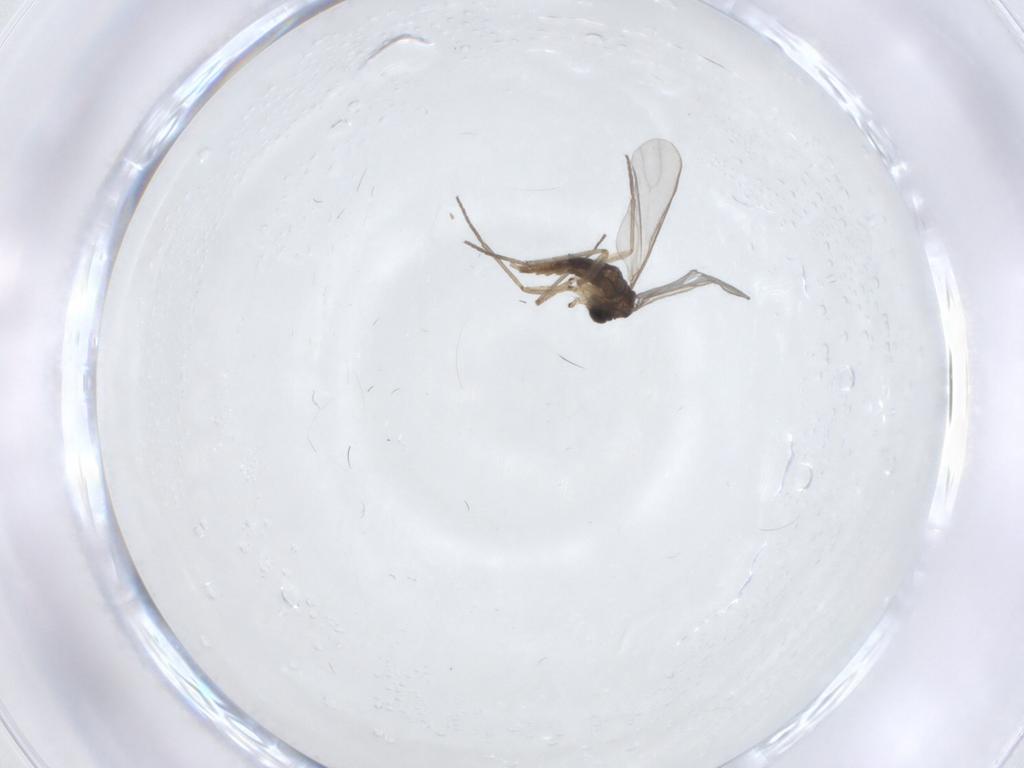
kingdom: Animalia
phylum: Arthropoda
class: Insecta
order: Diptera
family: Sciaridae
